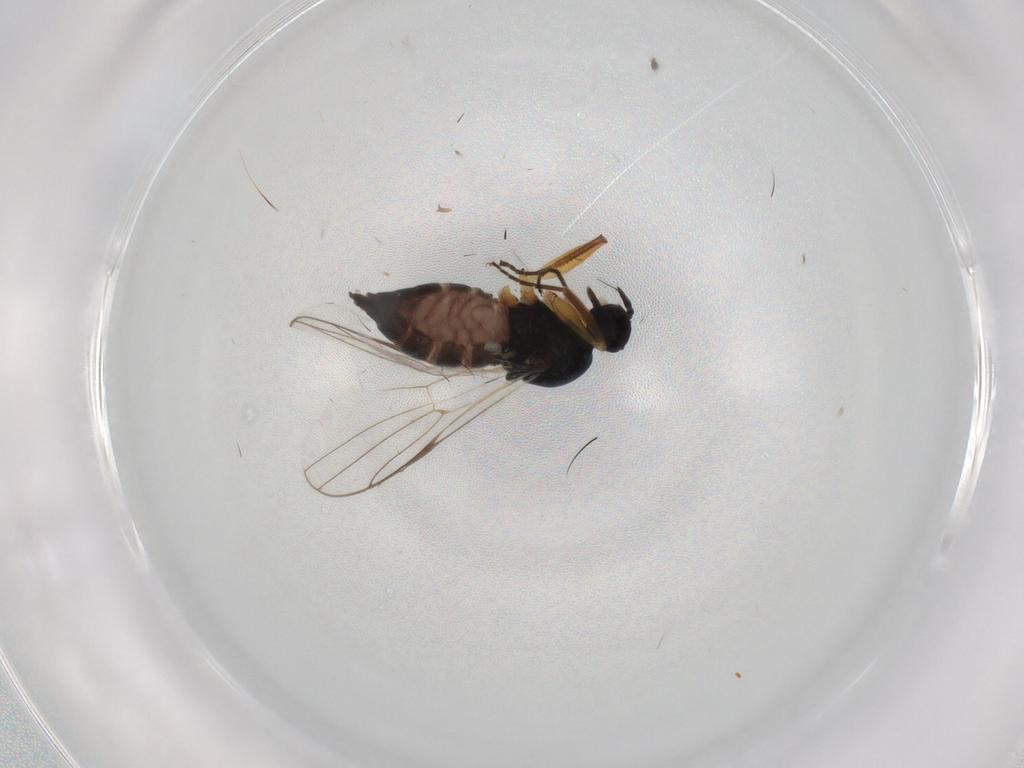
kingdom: Animalia
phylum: Arthropoda
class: Insecta
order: Diptera
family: Hybotidae
